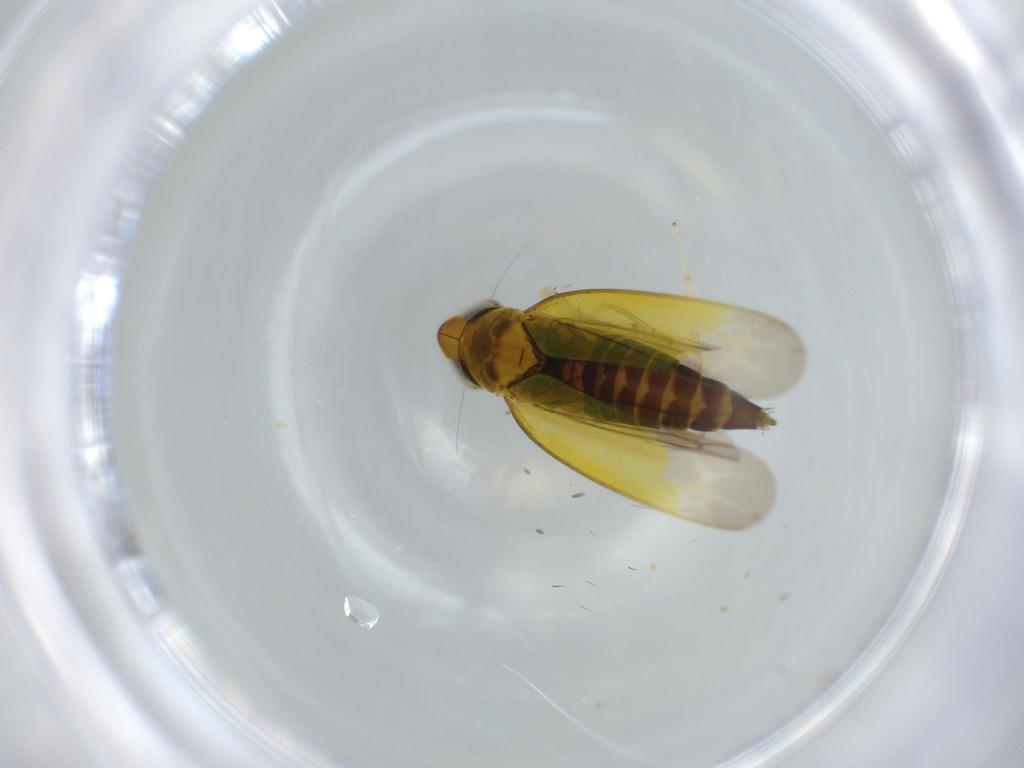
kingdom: Animalia
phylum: Arthropoda
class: Insecta
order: Hemiptera
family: Cicadellidae
